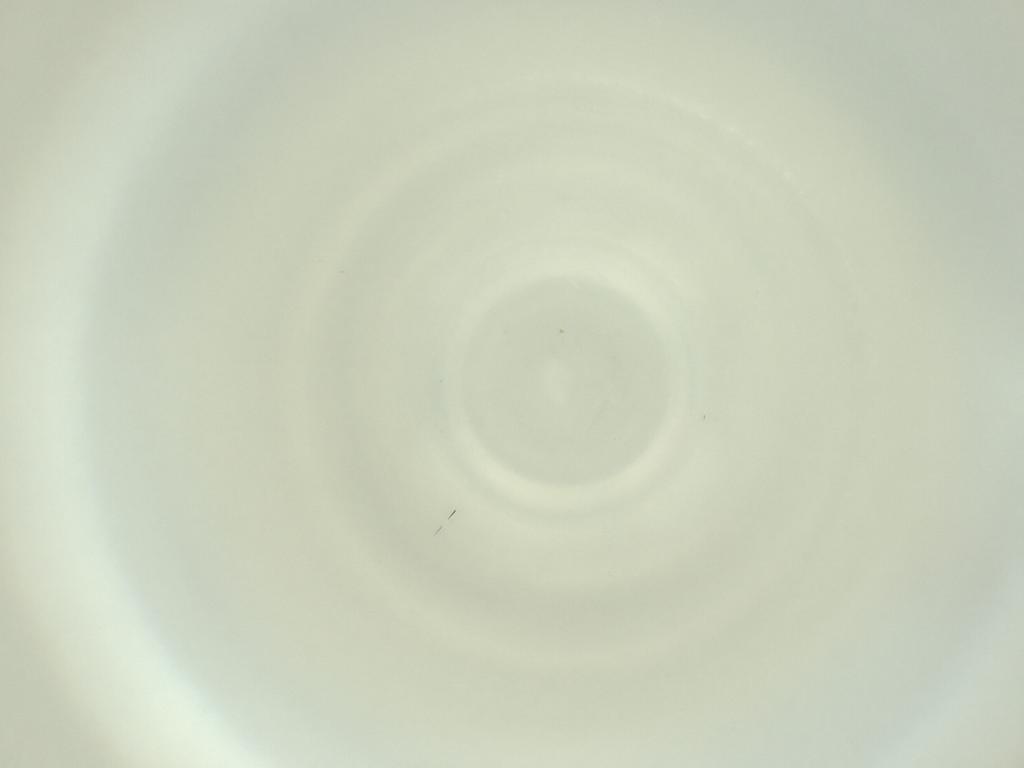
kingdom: Animalia
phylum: Arthropoda
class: Insecta
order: Diptera
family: Cecidomyiidae
